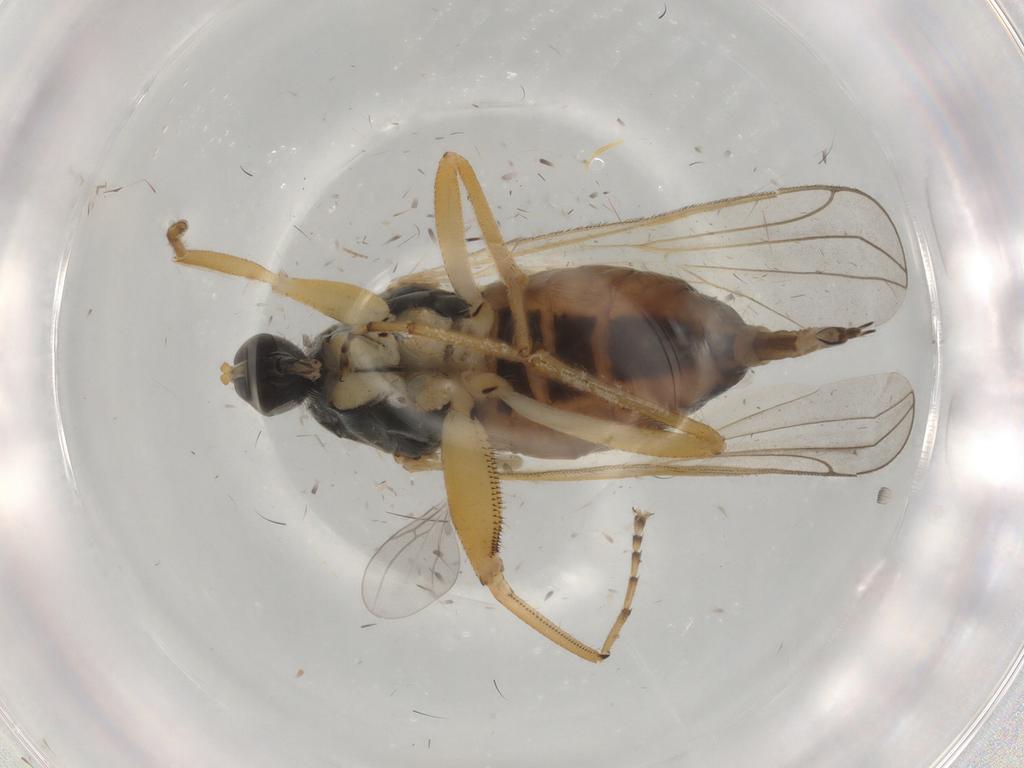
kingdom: Animalia
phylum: Arthropoda
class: Insecta
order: Diptera
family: Hybotidae
